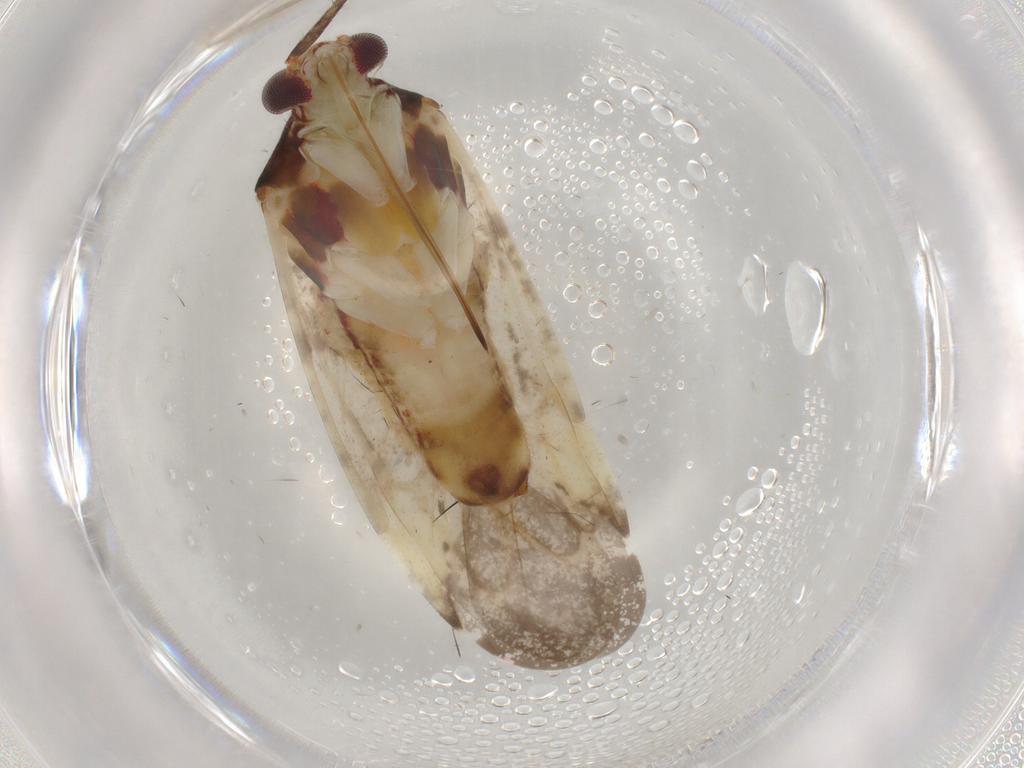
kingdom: Animalia
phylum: Arthropoda
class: Insecta
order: Hemiptera
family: Miridae
